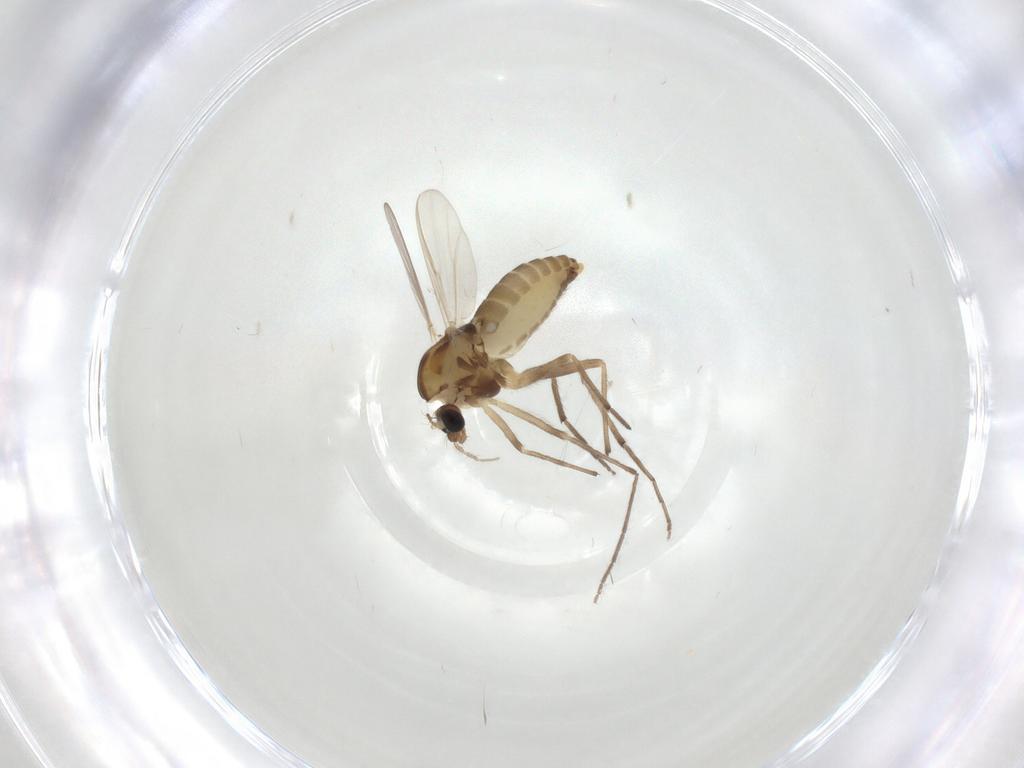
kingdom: Animalia
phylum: Arthropoda
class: Insecta
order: Diptera
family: Chironomidae
